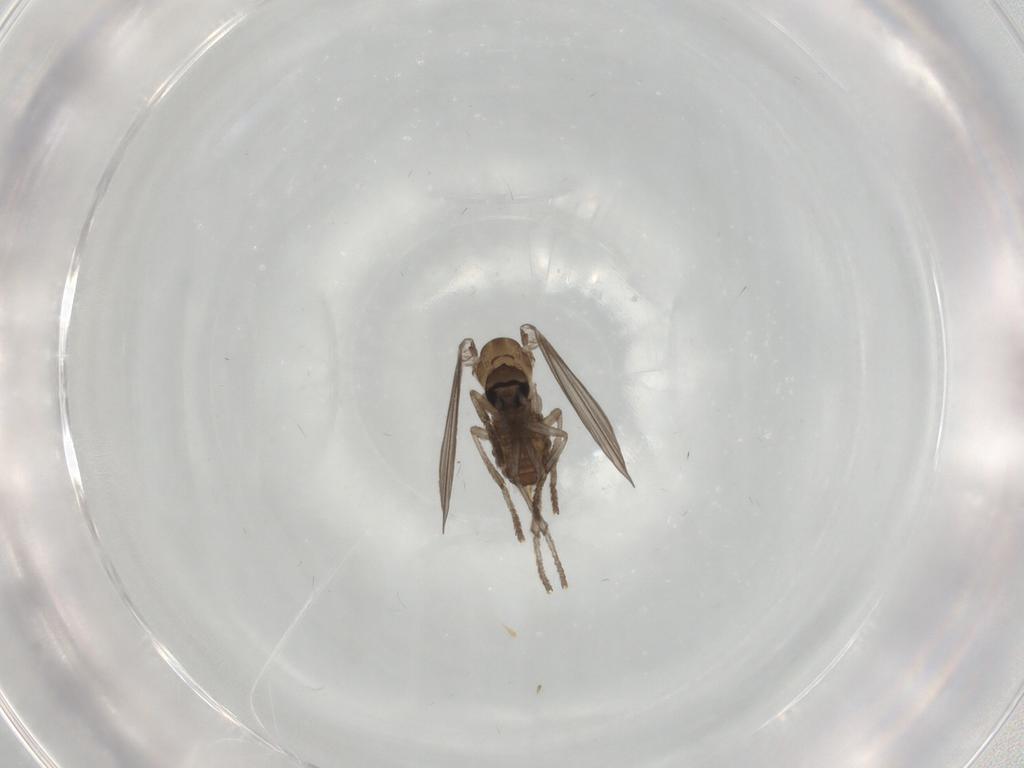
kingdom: Animalia
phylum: Arthropoda
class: Insecta
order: Diptera
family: Psychodidae
